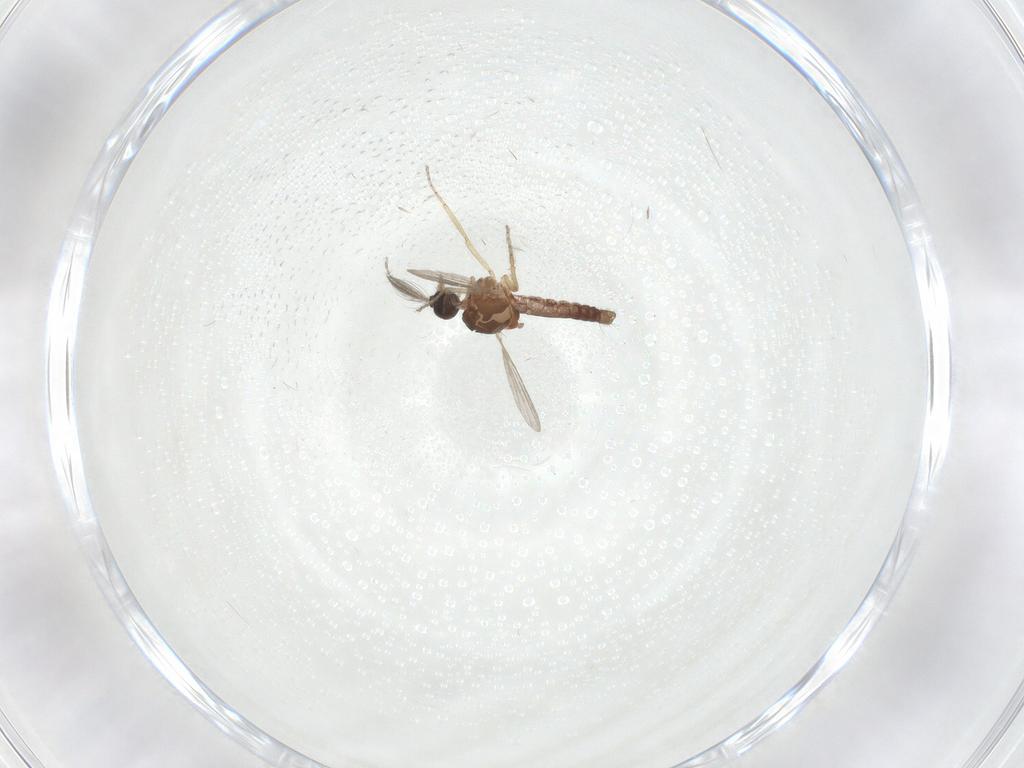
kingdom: Animalia
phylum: Arthropoda
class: Insecta
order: Diptera
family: Ceratopogonidae
